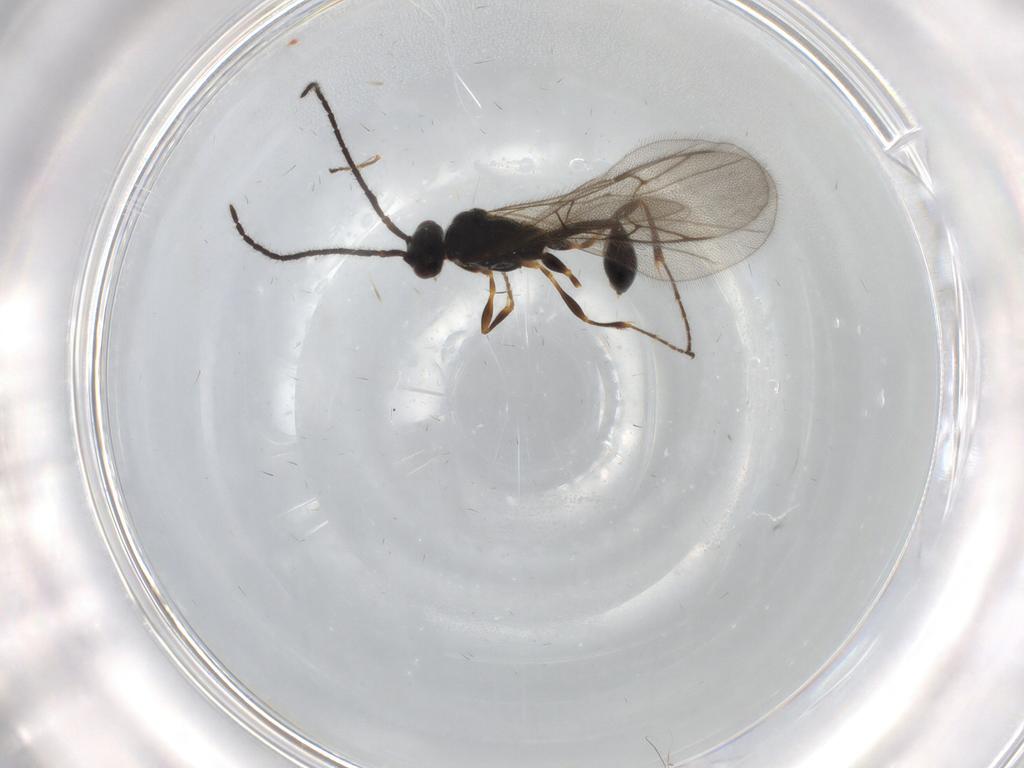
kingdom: Animalia
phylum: Arthropoda
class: Insecta
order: Hymenoptera
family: Diapriidae
